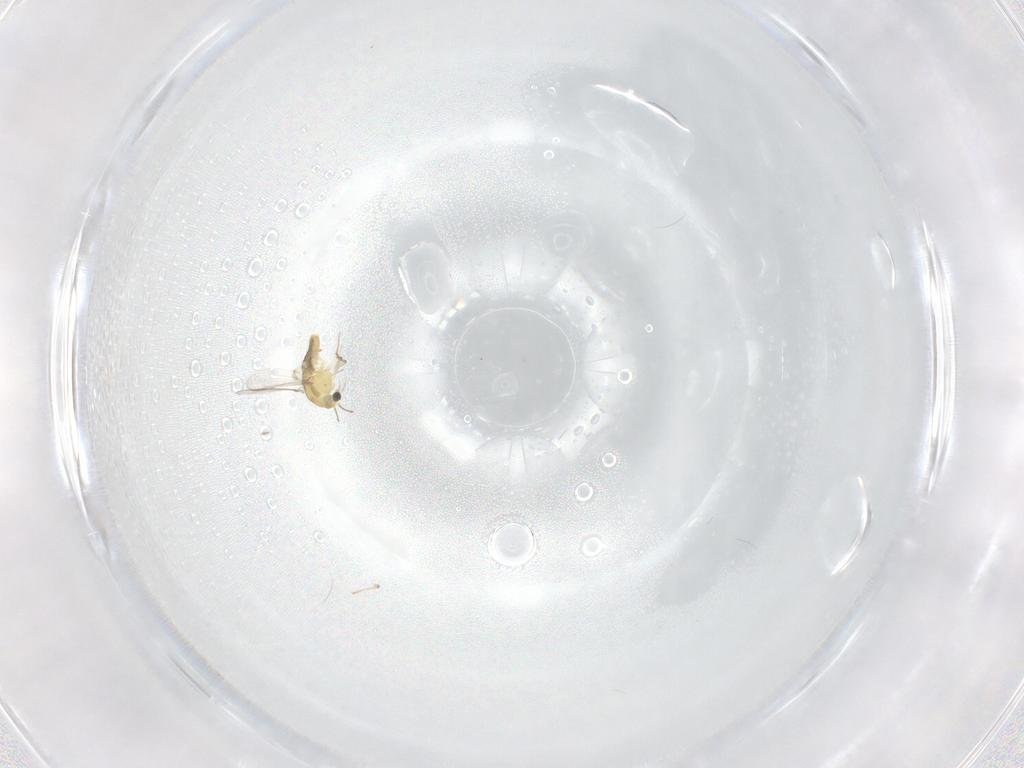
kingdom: Animalia
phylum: Arthropoda
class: Insecta
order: Diptera
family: Chironomidae
